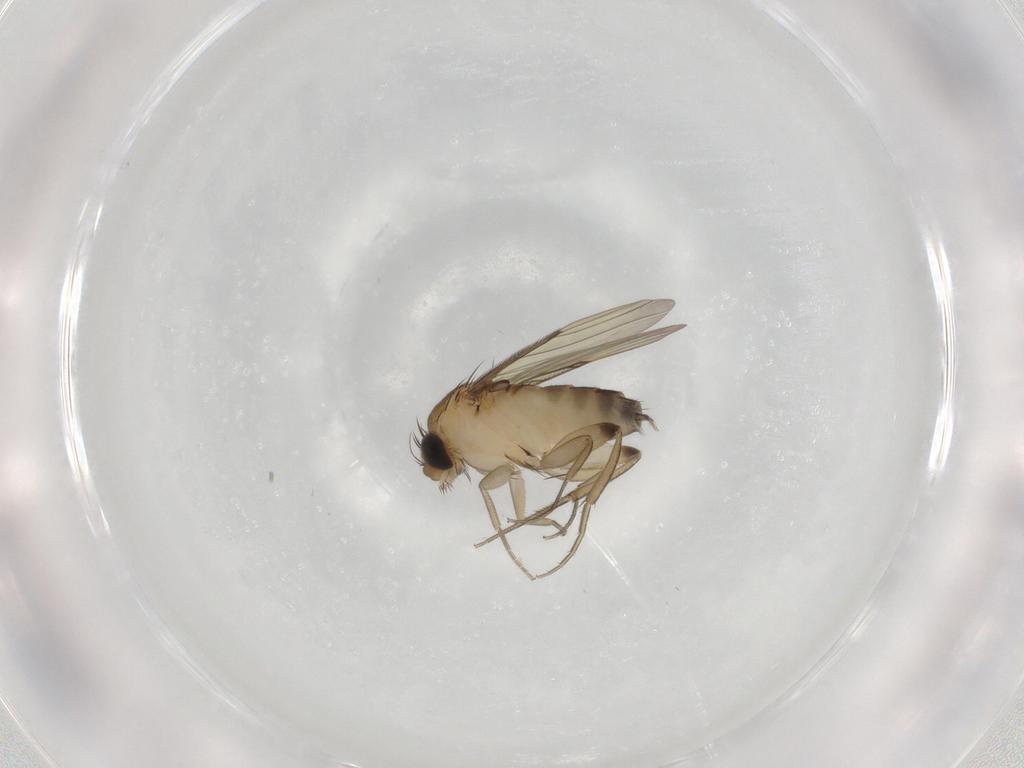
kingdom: Animalia
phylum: Arthropoda
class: Insecta
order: Diptera
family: Phoridae
